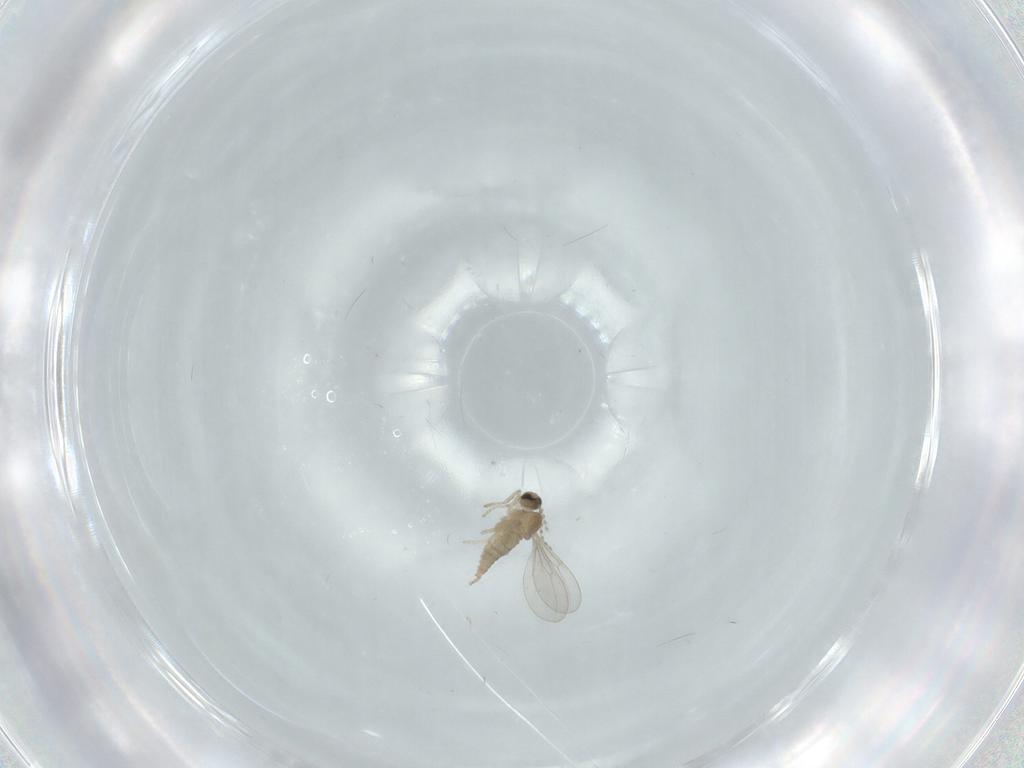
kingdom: Animalia
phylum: Arthropoda
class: Insecta
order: Diptera
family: Cecidomyiidae
